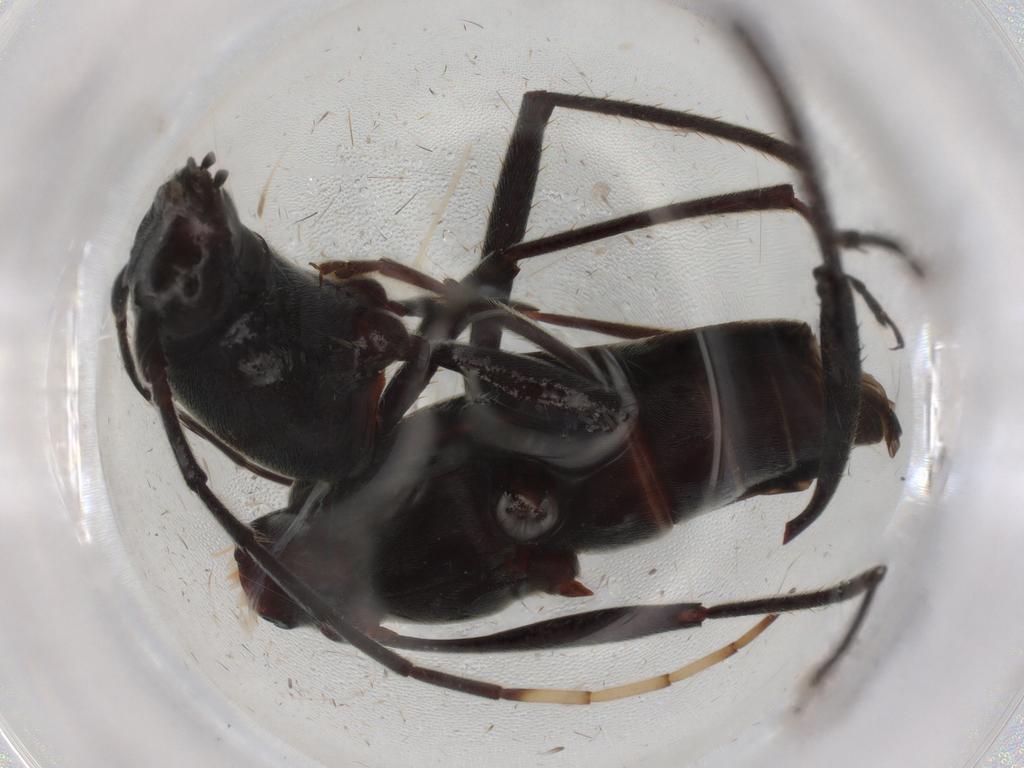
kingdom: Animalia
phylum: Arthropoda
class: Insecta
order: Coleoptera
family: Cerambycidae
